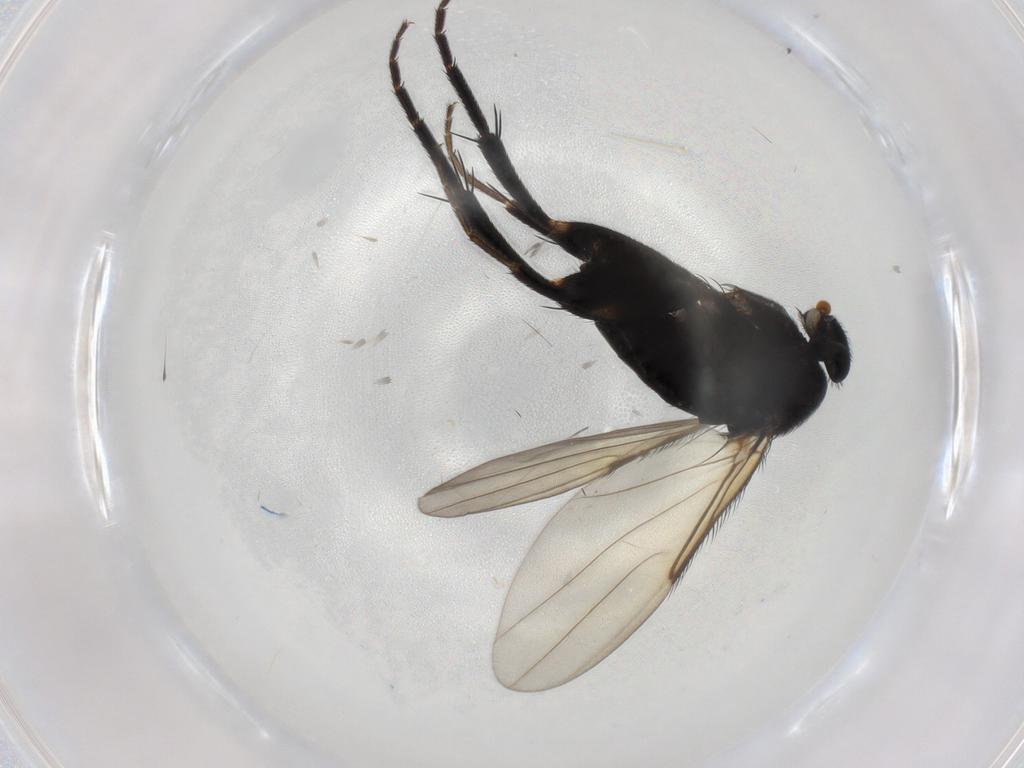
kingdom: Animalia
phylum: Arthropoda
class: Insecta
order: Diptera
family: Phoridae
